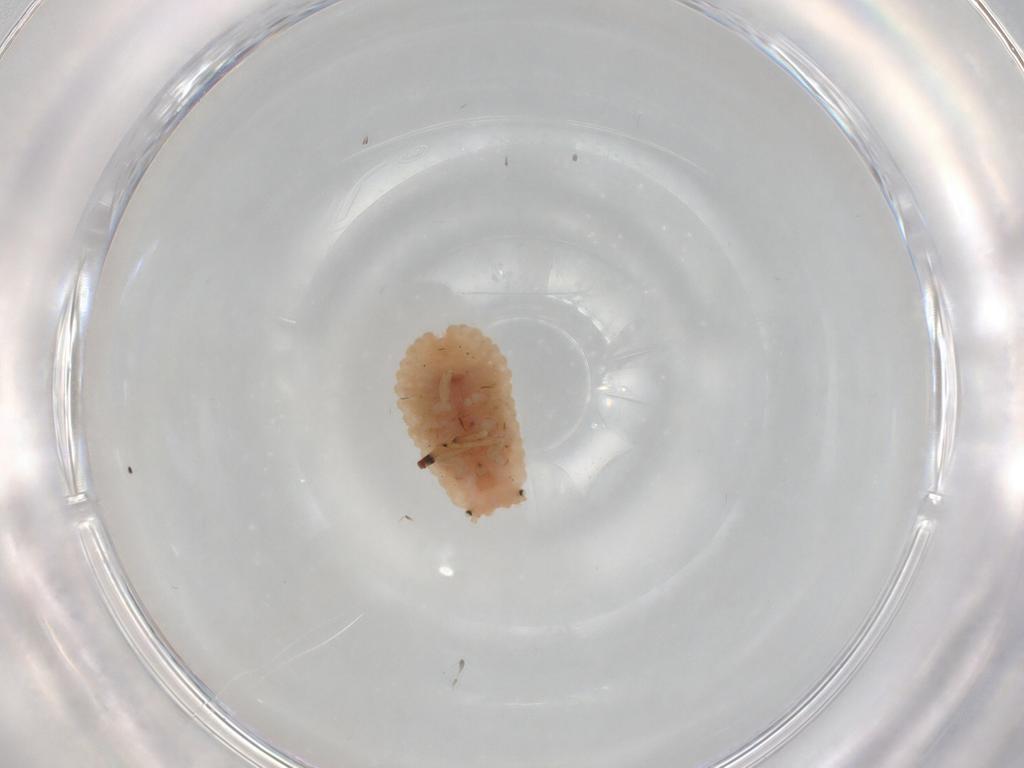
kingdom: Animalia
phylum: Arthropoda
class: Insecta
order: Hemiptera
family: Coccoidea_incertae_sedis
